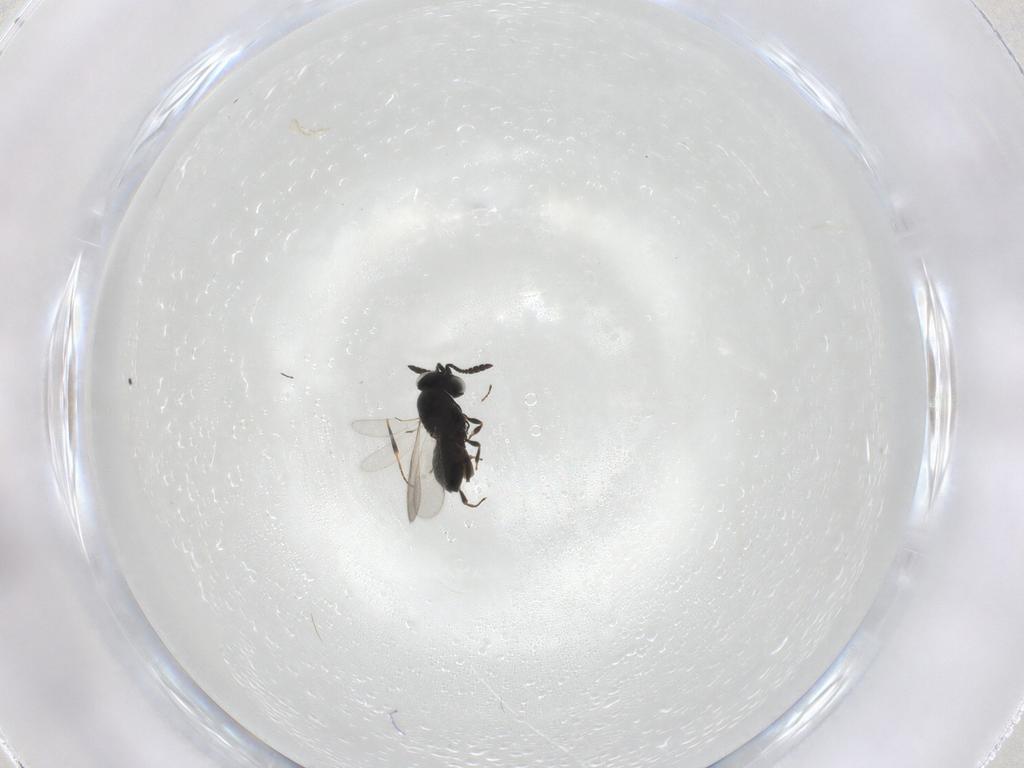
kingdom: Animalia
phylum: Arthropoda
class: Insecta
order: Hymenoptera
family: Scelionidae
